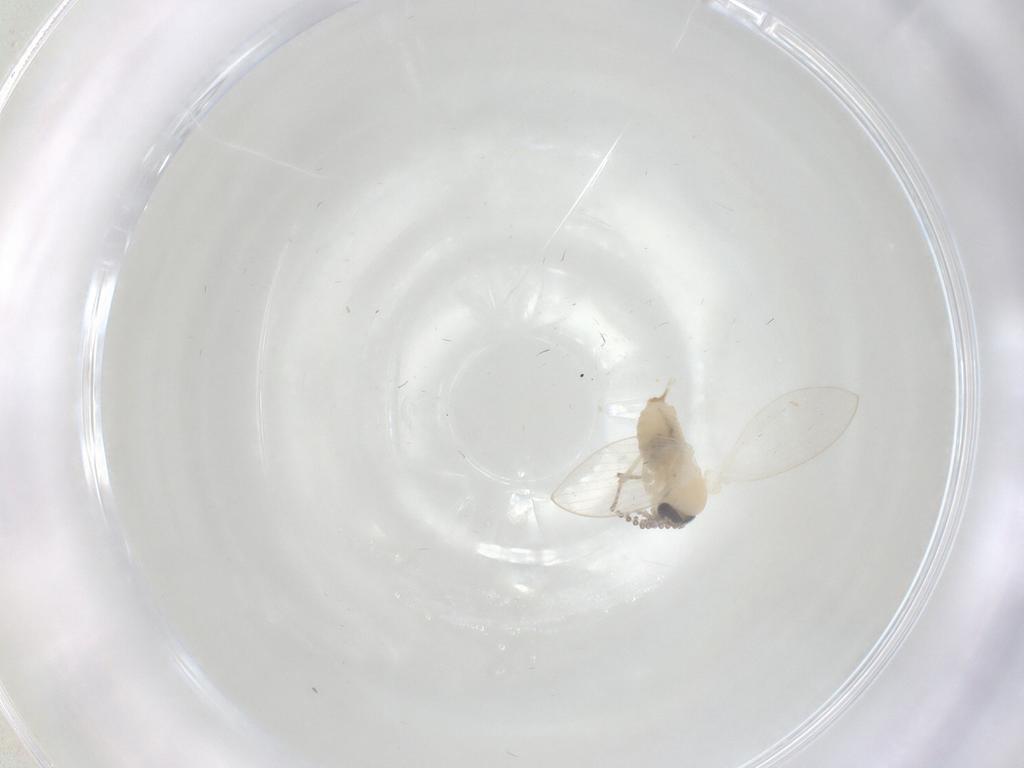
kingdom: Animalia
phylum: Arthropoda
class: Insecta
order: Diptera
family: Psychodidae
